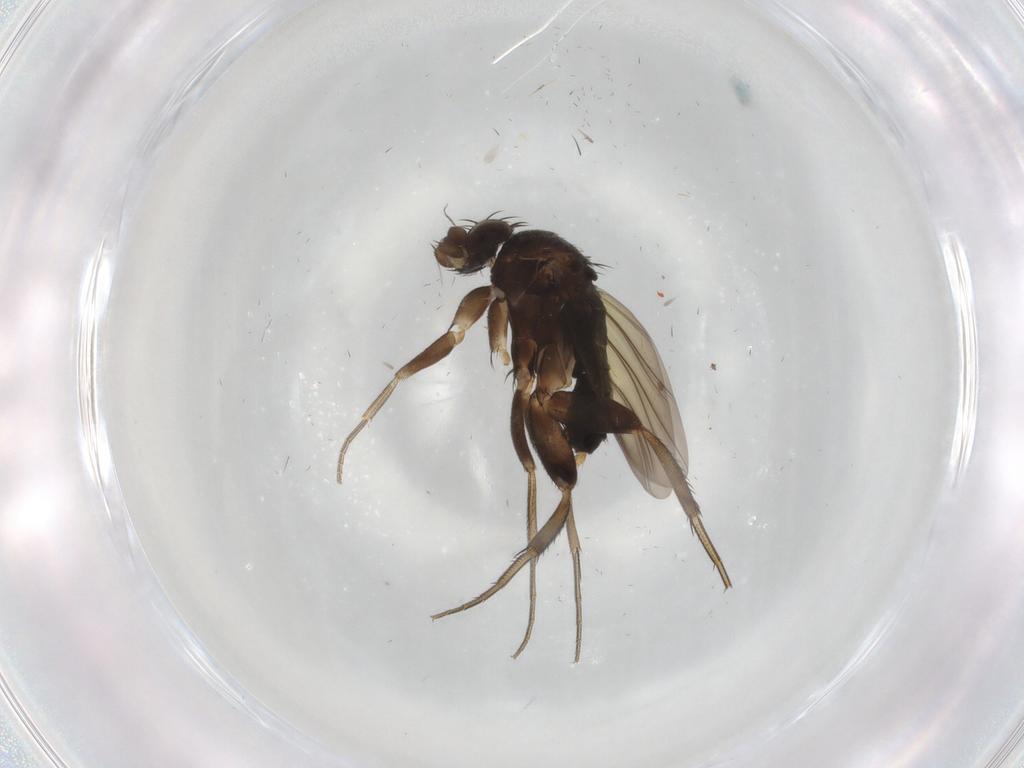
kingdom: Animalia
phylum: Arthropoda
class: Insecta
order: Diptera
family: Phoridae
